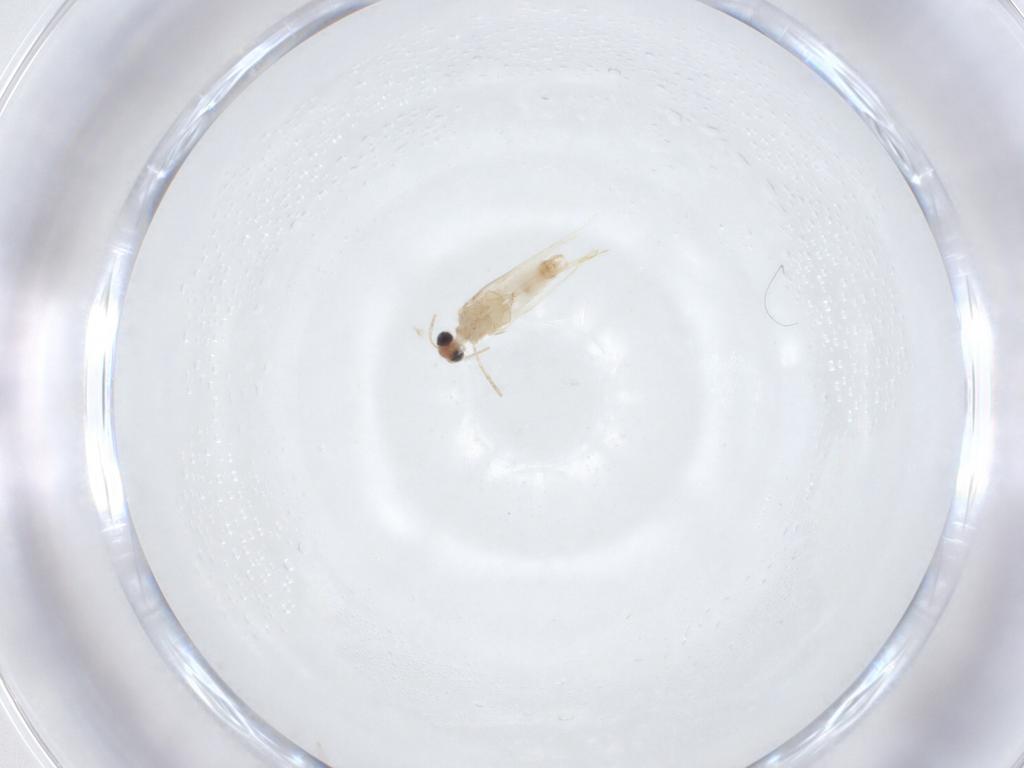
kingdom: Animalia
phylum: Arthropoda
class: Insecta
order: Lepidoptera
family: Nepticulidae
